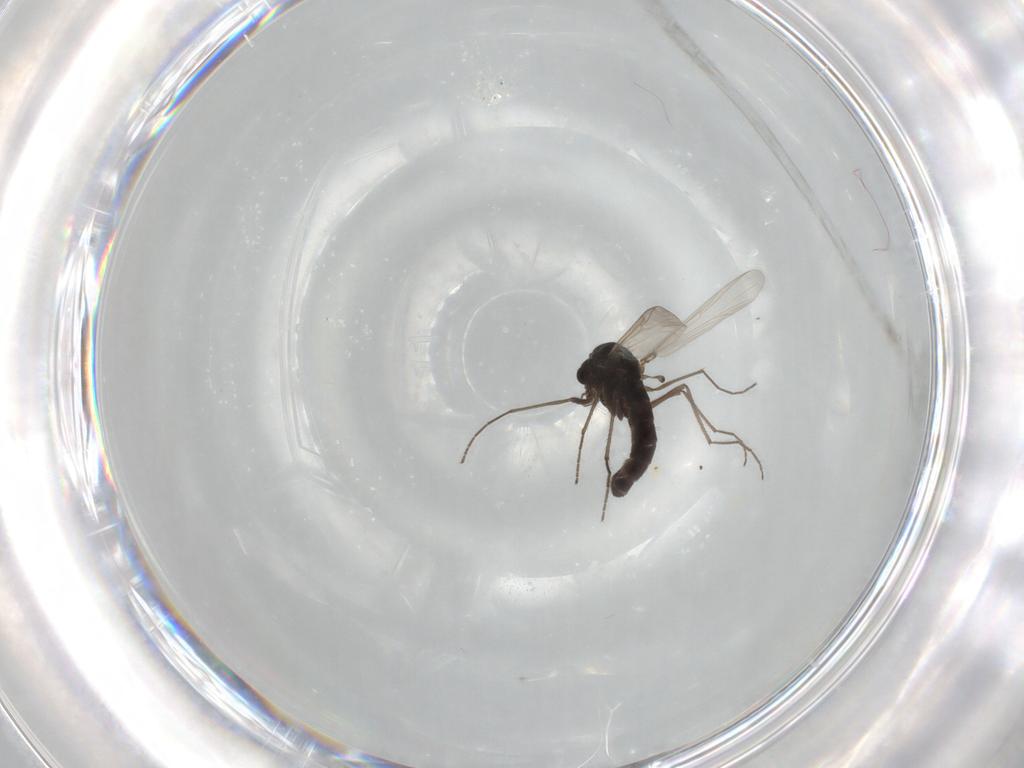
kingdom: Animalia
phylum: Arthropoda
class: Insecta
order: Diptera
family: Chironomidae
